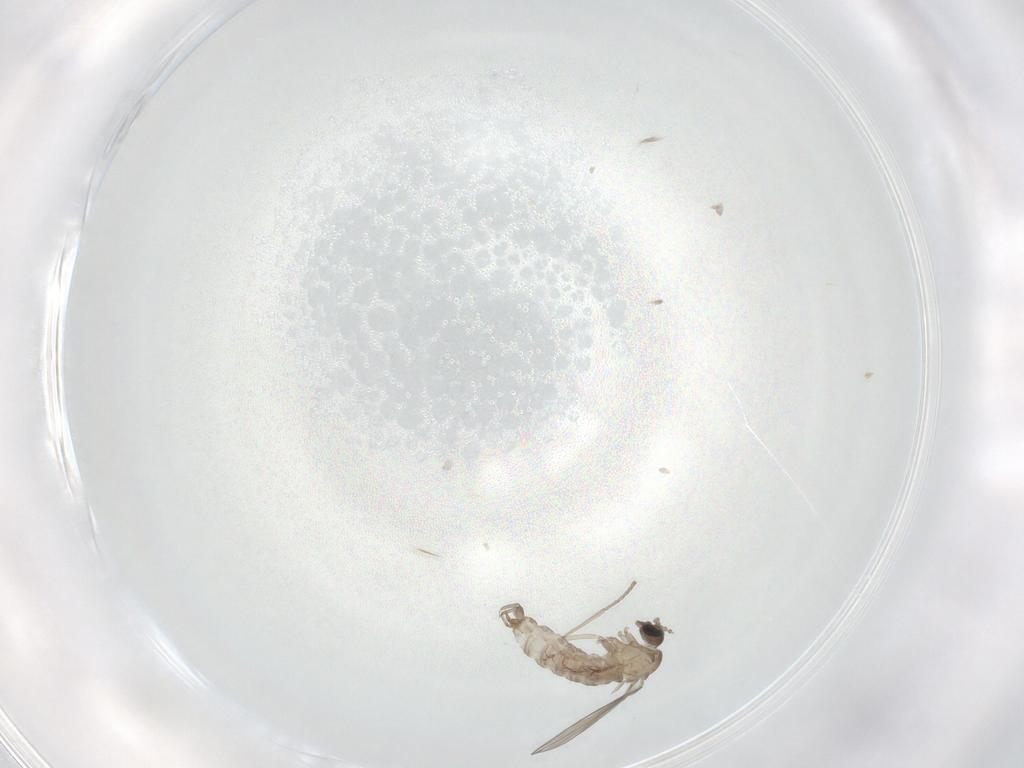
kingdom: Animalia
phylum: Arthropoda
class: Insecta
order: Diptera
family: Psychodidae
